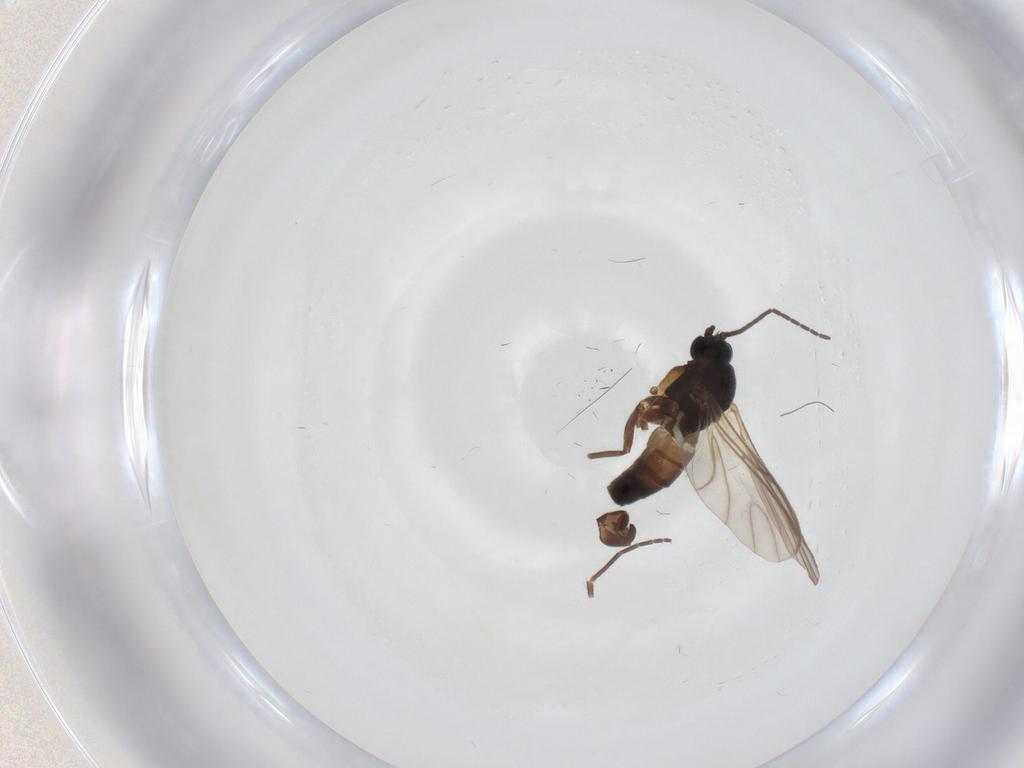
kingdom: Animalia
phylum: Arthropoda
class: Insecta
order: Diptera
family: Sciaridae
